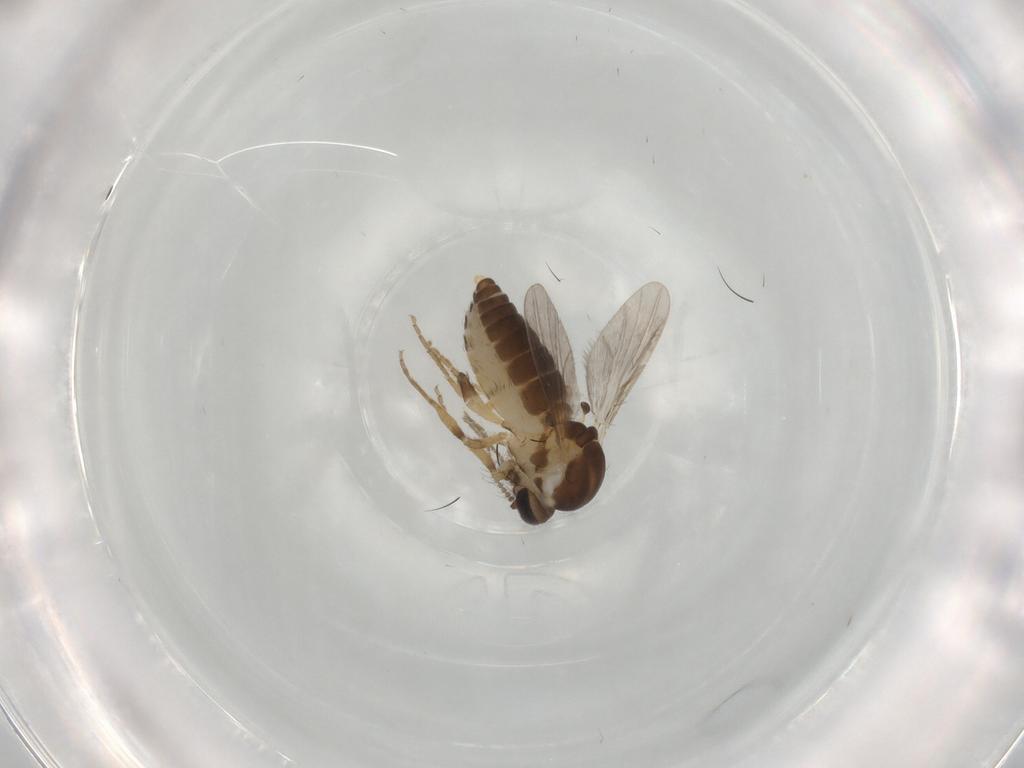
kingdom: Animalia
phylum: Arthropoda
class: Insecta
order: Diptera
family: Ceratopogonidae
